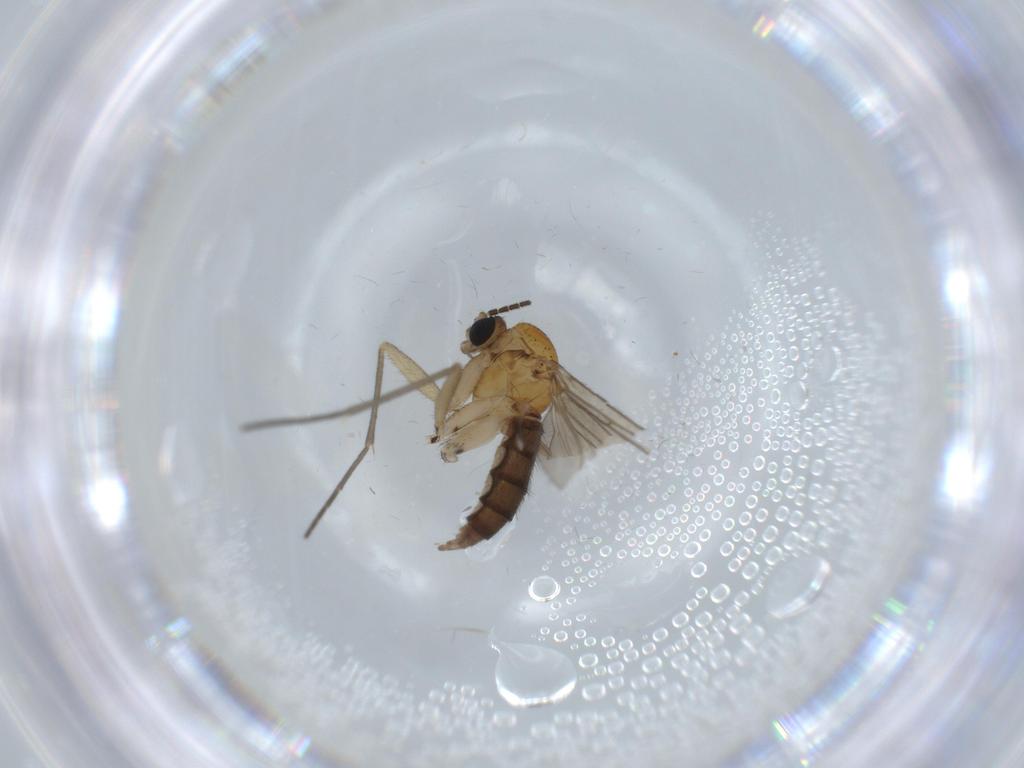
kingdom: Animalia
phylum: Arthropoda
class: Insecta
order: Diptera
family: Sciaridae
